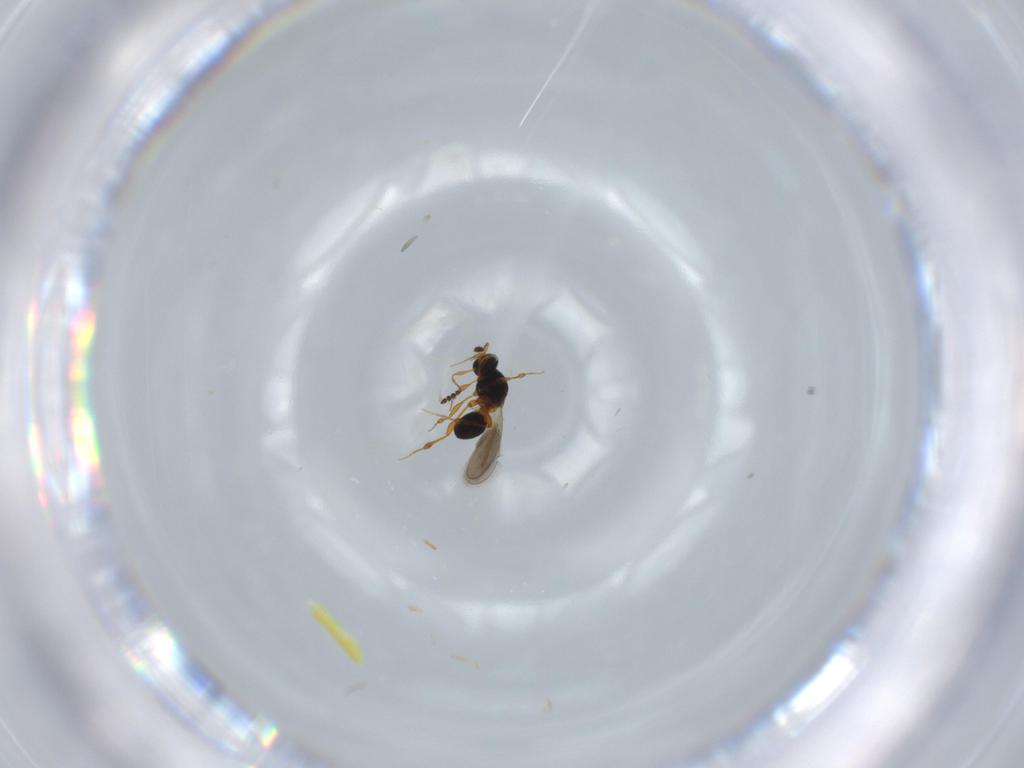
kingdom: Animalia
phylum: Arthropoda
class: Insecta
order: Hymenoptera
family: Platygastridae
